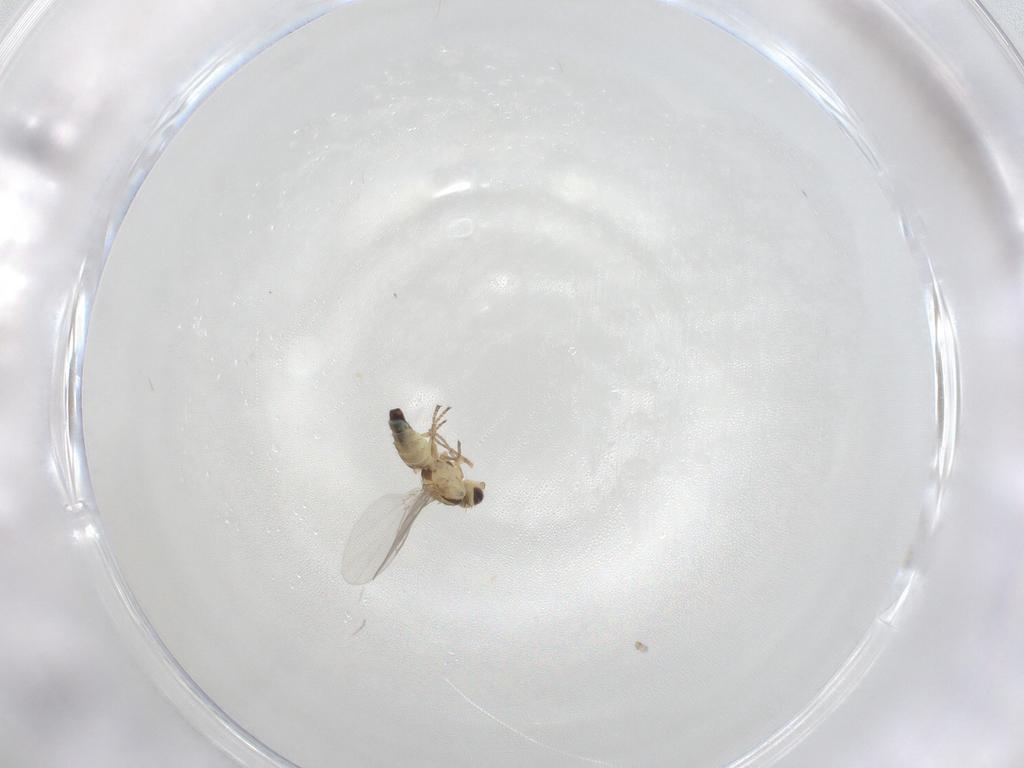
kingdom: Animalia
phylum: Arthropoda
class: Insecta
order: Diptera
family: Agromyzidae
